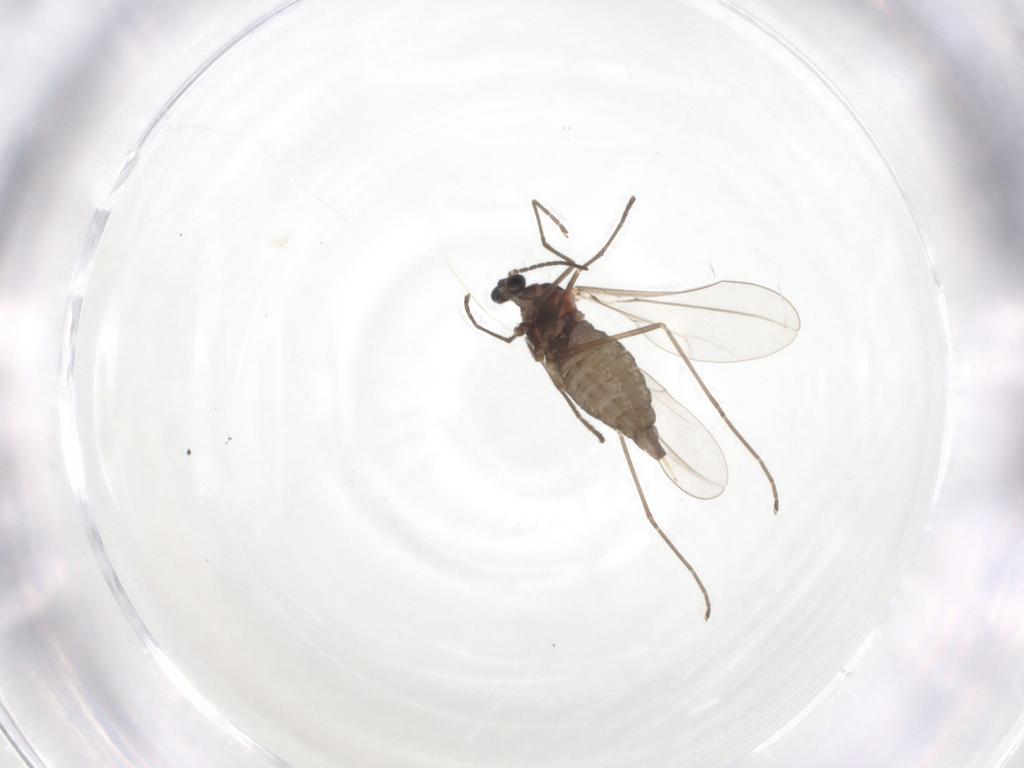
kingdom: Animalia
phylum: Arthropoda
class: Insecta
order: Diptera
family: Cecidomyiidae
